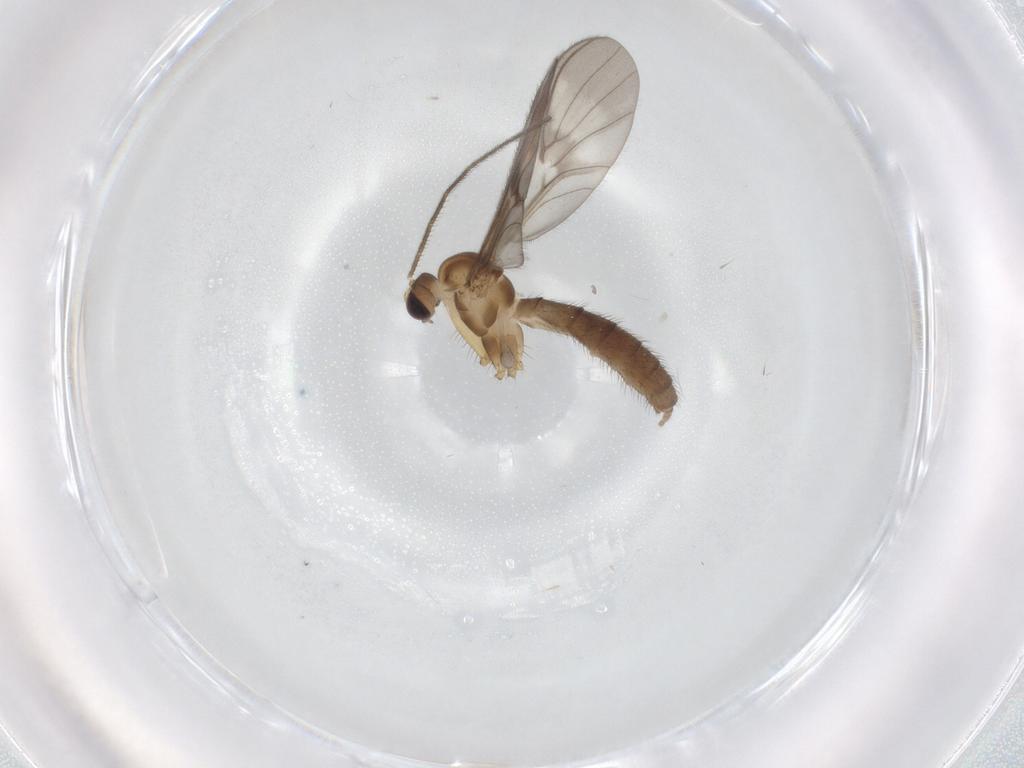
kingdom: Animalia
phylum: Arthropoda
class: Insecta
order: Diptera
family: Keroplatidae
